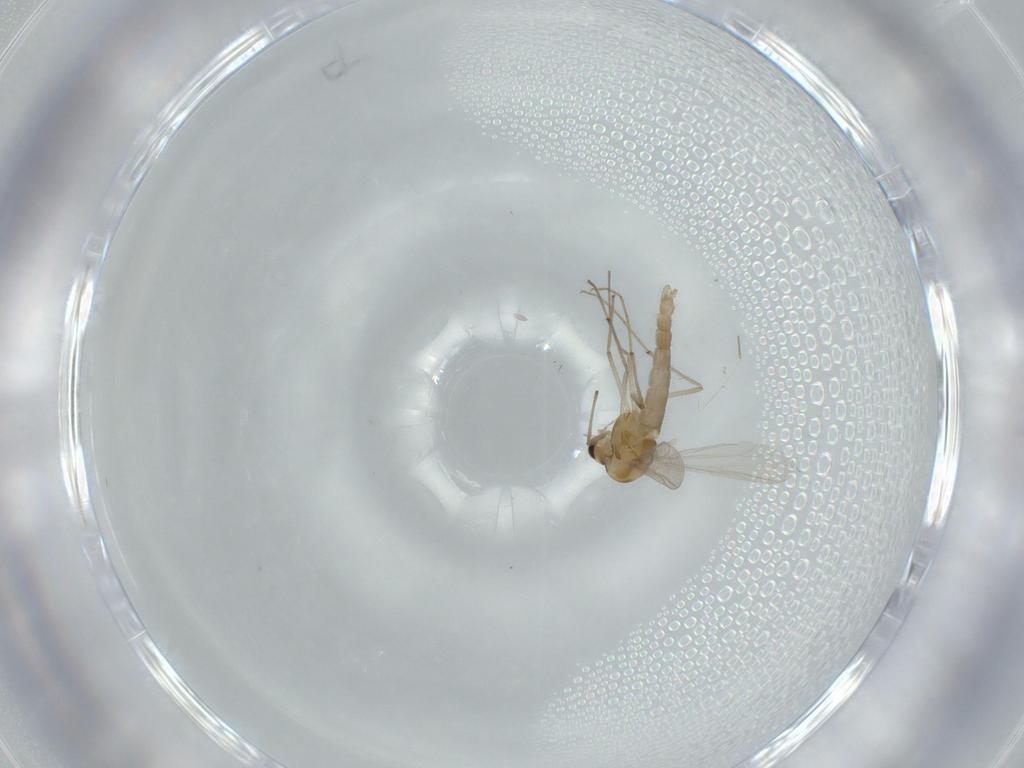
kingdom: Animalia
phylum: Arthropoda
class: Insecta
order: Diptera
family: Chironomidae
